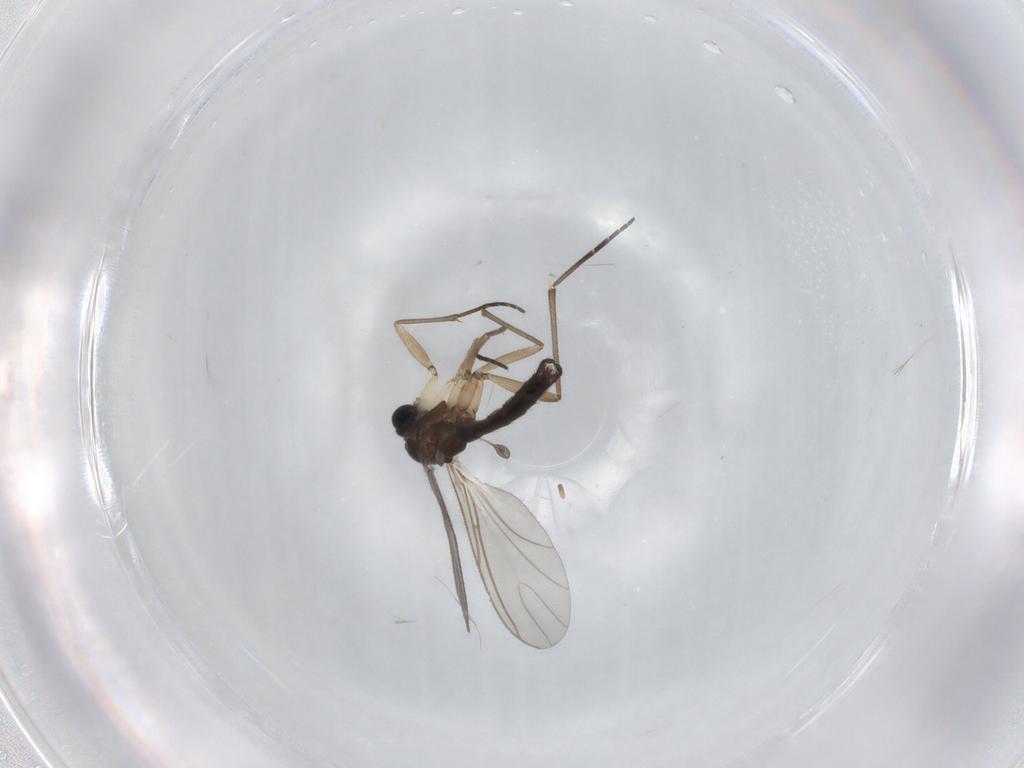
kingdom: Animalia
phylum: Arthropoda
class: Insecta
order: Diptera
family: Sciaridae
